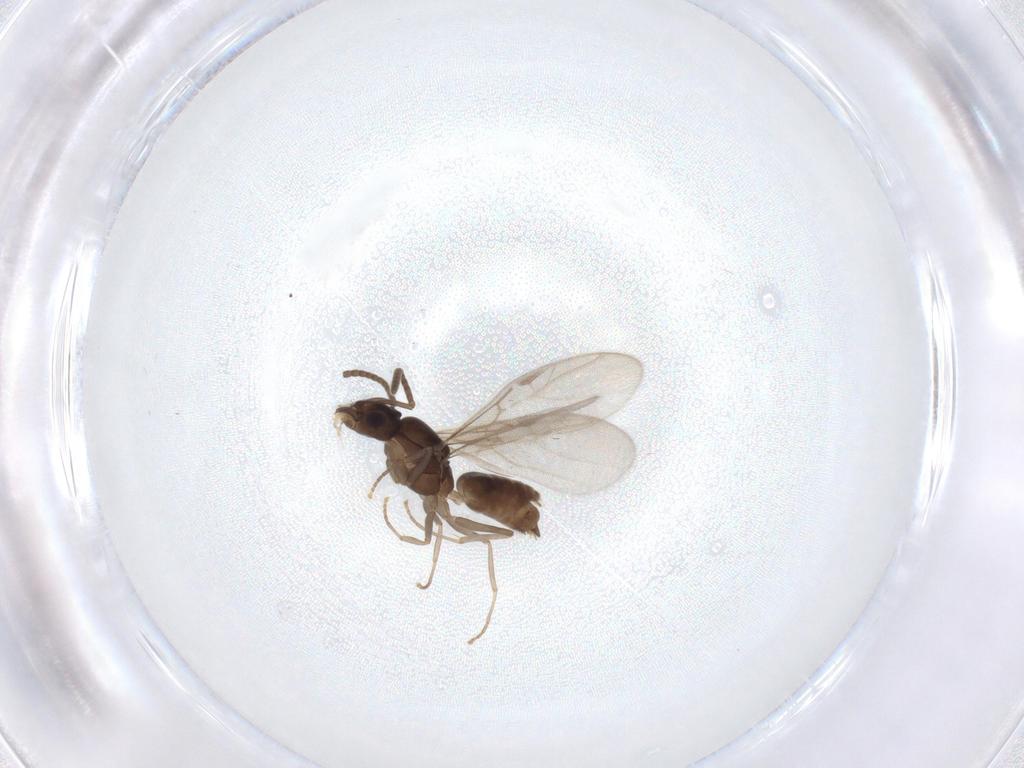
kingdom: Animalia
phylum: Arthropoda
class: Insecta
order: Hymenoptera
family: Formicidae
